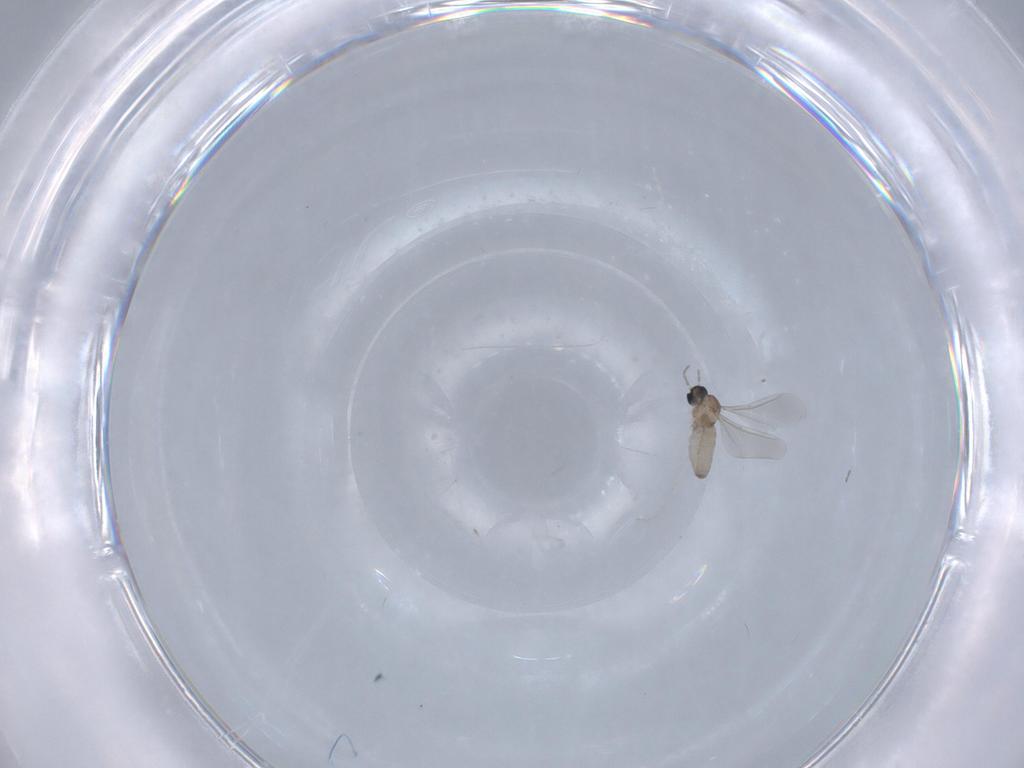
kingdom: Animalia
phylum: Arthropoda
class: Insecta
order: Diptera
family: Cecidomyiidae
